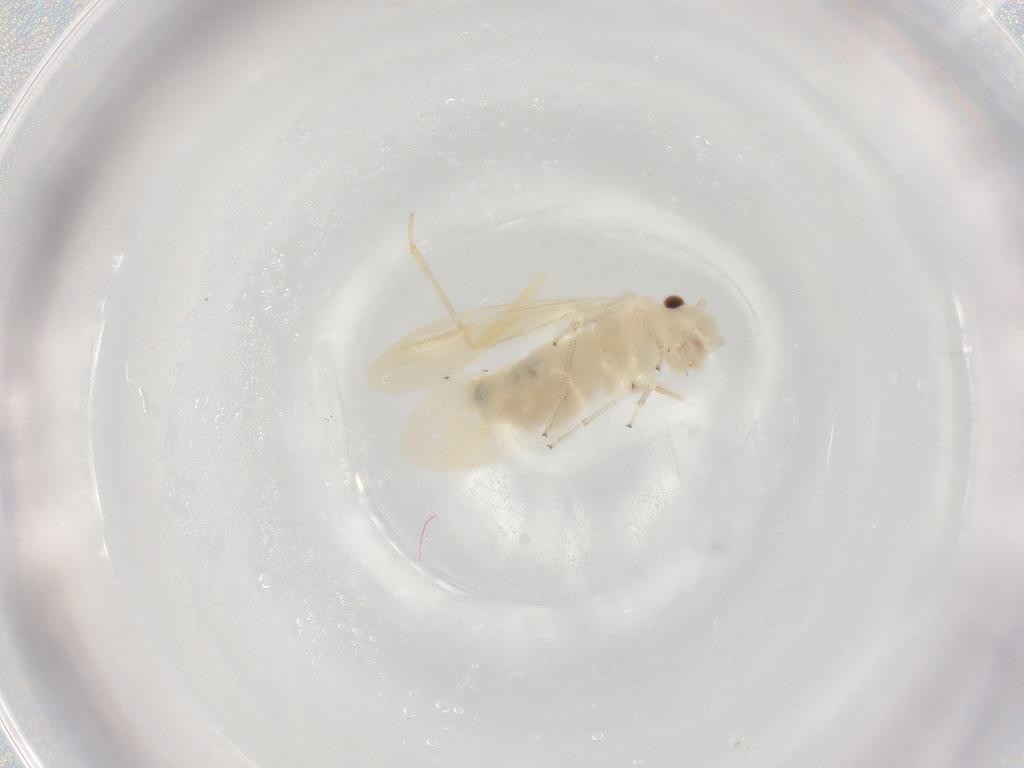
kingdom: Animalia
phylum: Arthropoda
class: Insecta
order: Psocodea
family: Caeciliusidae
